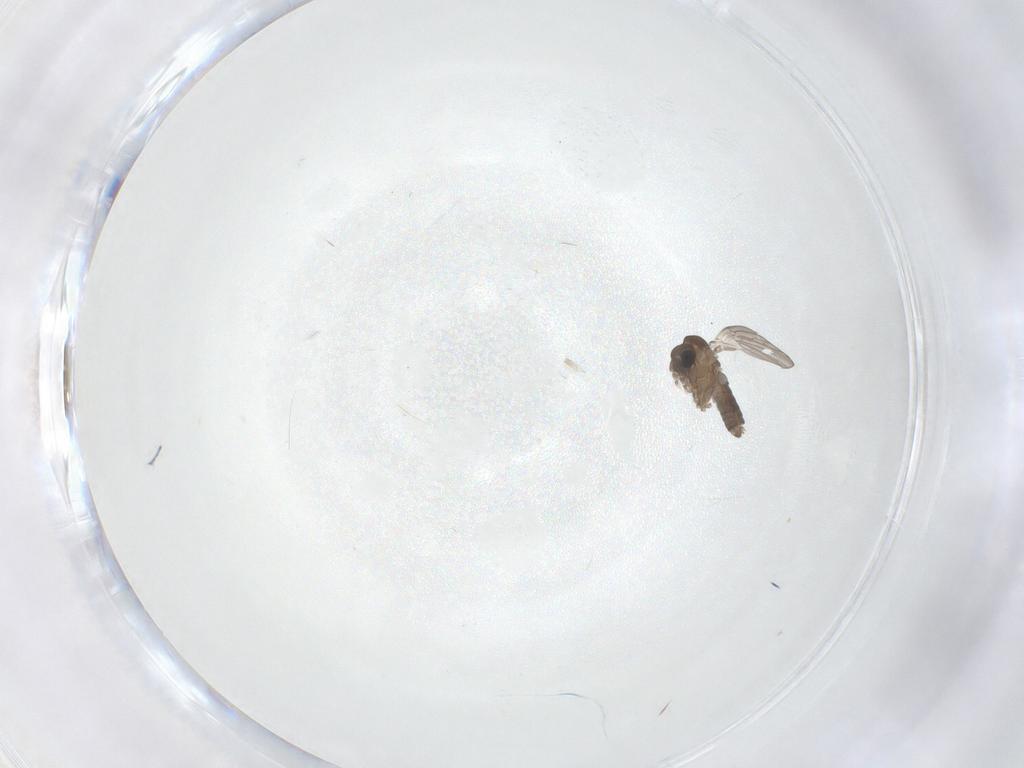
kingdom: Animalia
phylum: Arthropoda
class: Insecta
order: Diptera
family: Psychodidae
